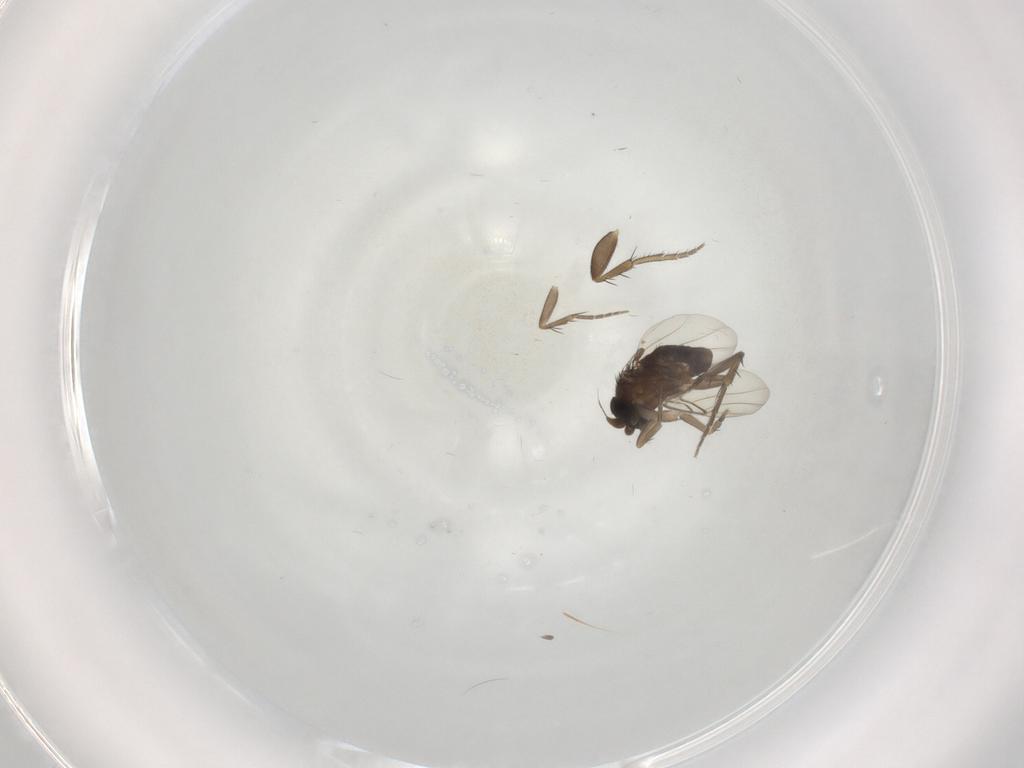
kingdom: Animalia
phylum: Arthropoda
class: Insecta
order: Diptera
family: Phoridae
